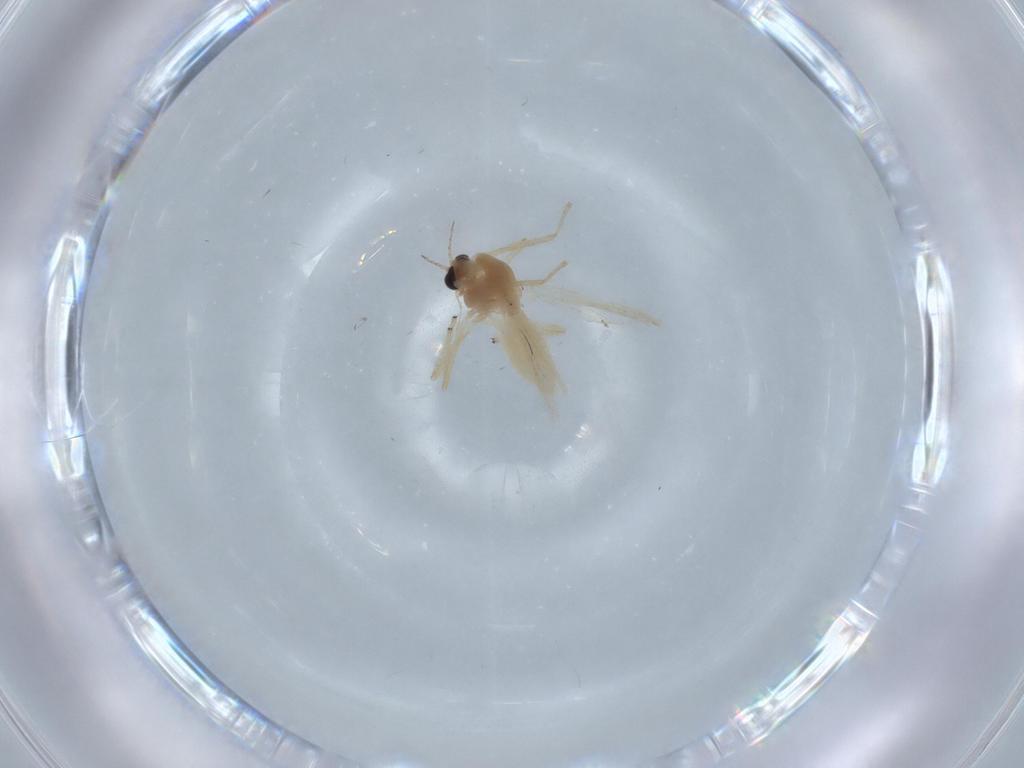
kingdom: Animalia
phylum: Arthropoda
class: Insecta
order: Diptera
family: Chironomidae
